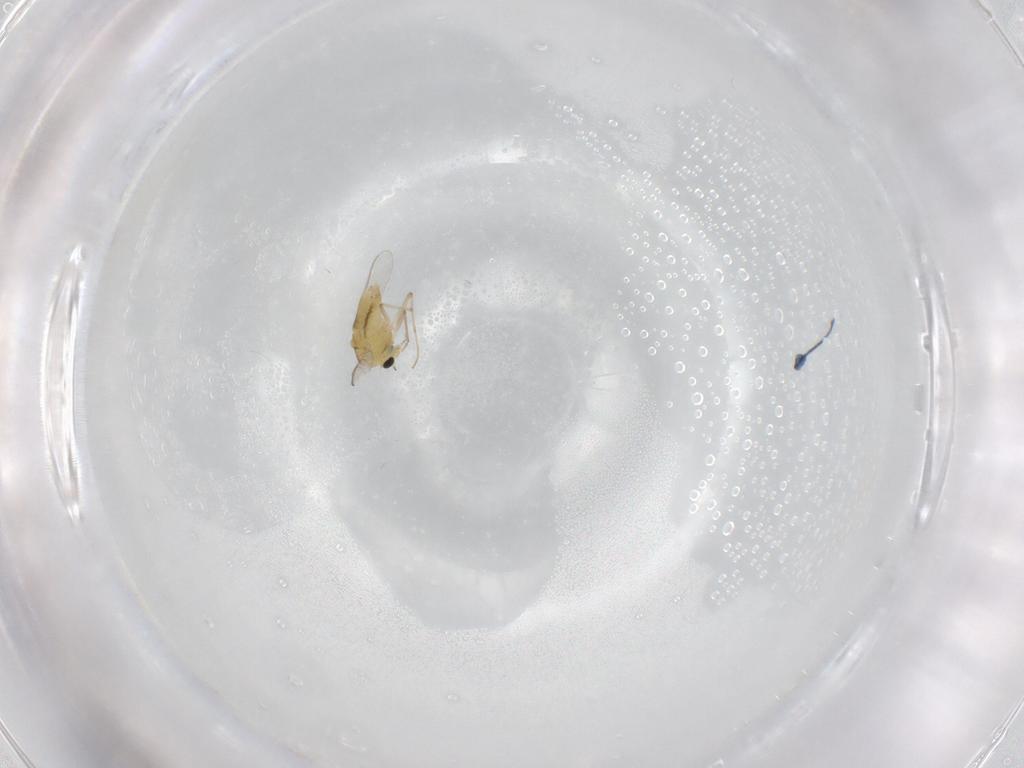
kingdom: Animalia
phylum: Arthropoda
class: Insecta
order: Diptera
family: Chironomidae
